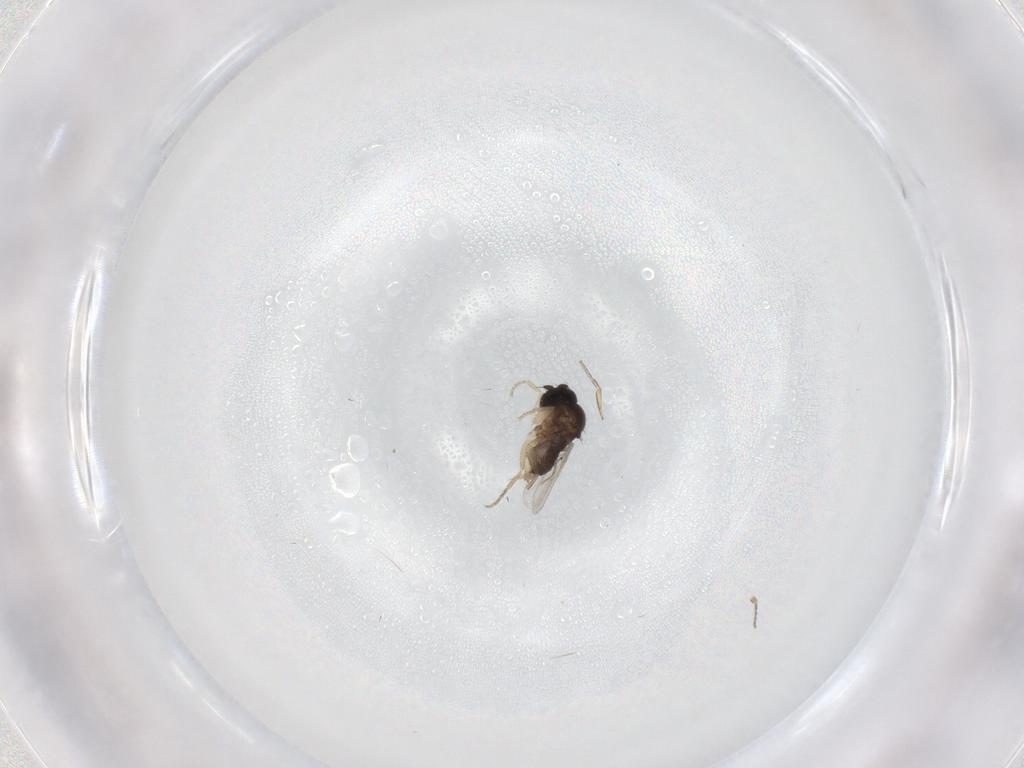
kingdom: Animalia
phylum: Arthropoda
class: Insecta
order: Diptera
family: Phoridae
